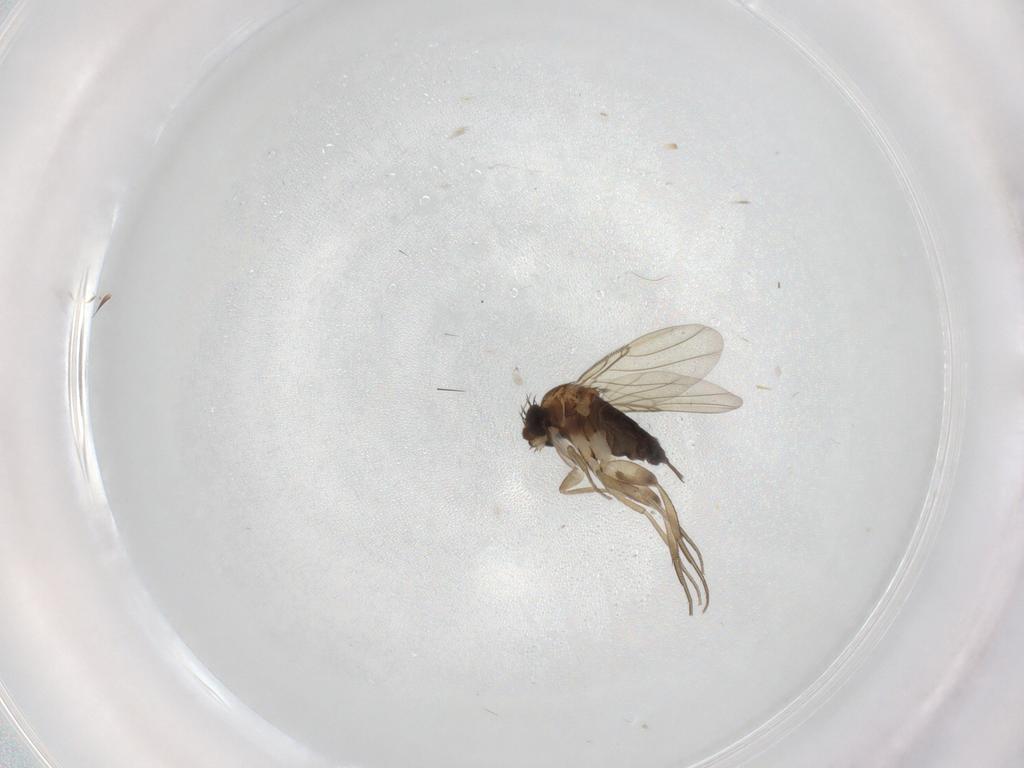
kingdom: Animalia
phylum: Arthropoda
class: Insecta
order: Diptera
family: Phoridae
